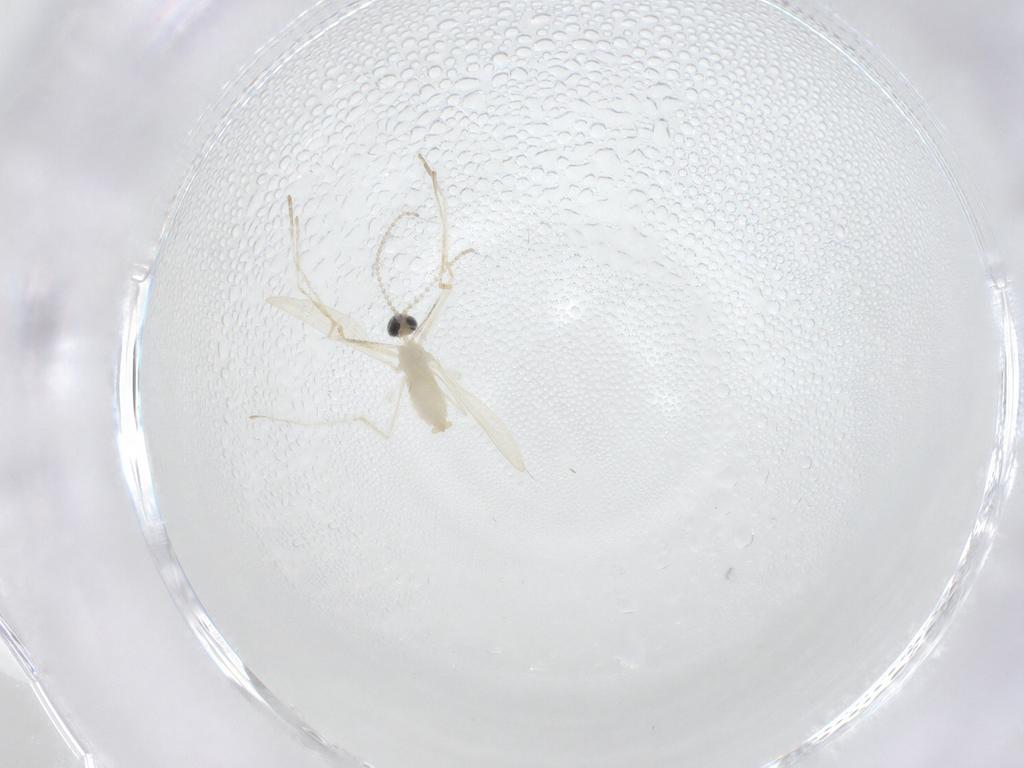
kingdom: Animalia
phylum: Arthropoda
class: Insecta
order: Diptera
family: Cecidomyiidae
